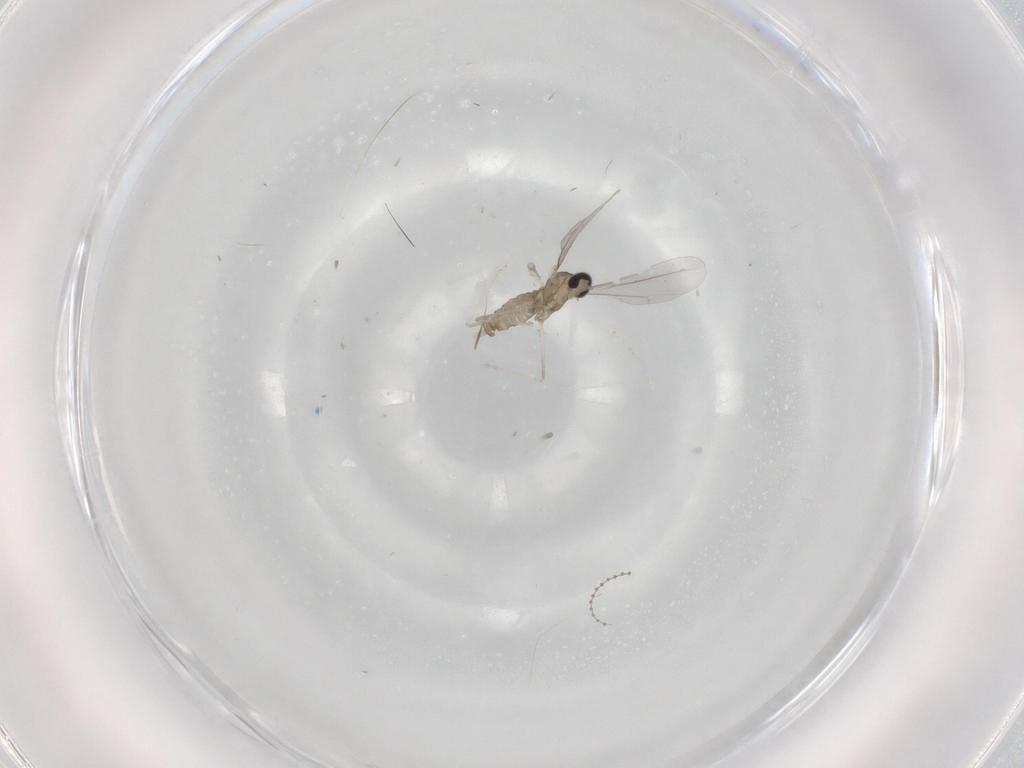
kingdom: Animalia
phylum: Arthropoda
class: Insecta
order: Diptera
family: Cecidomyiidae
